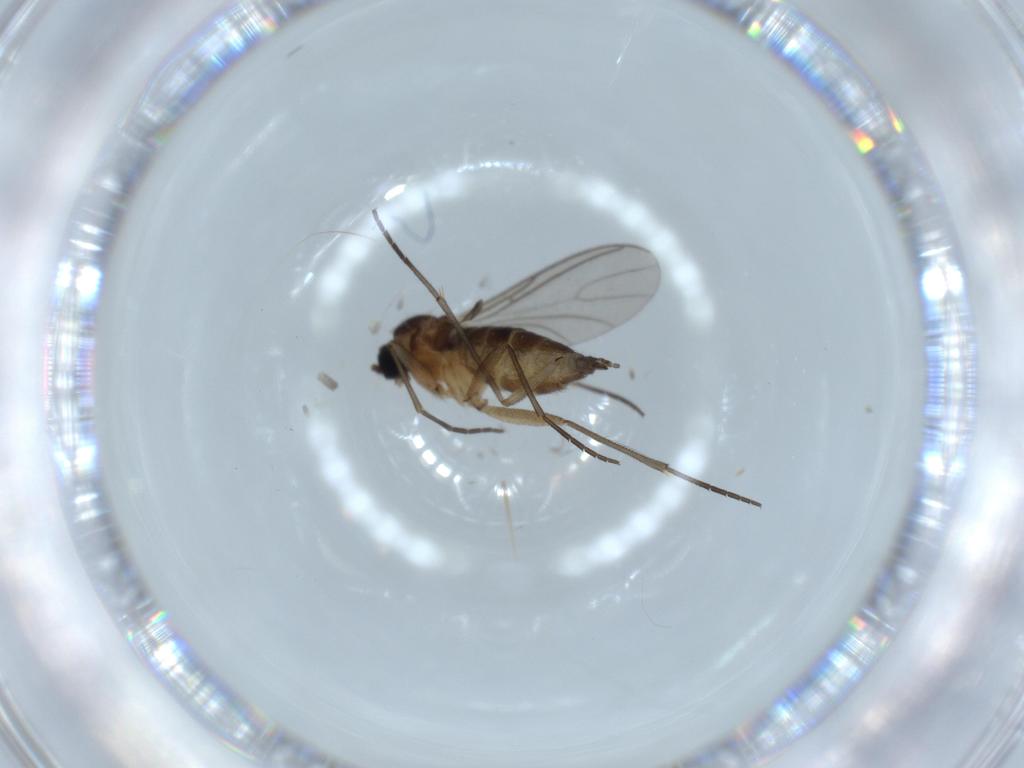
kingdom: Animalia
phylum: Arthropoda
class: Insecta
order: Diptera
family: Sciaridae
